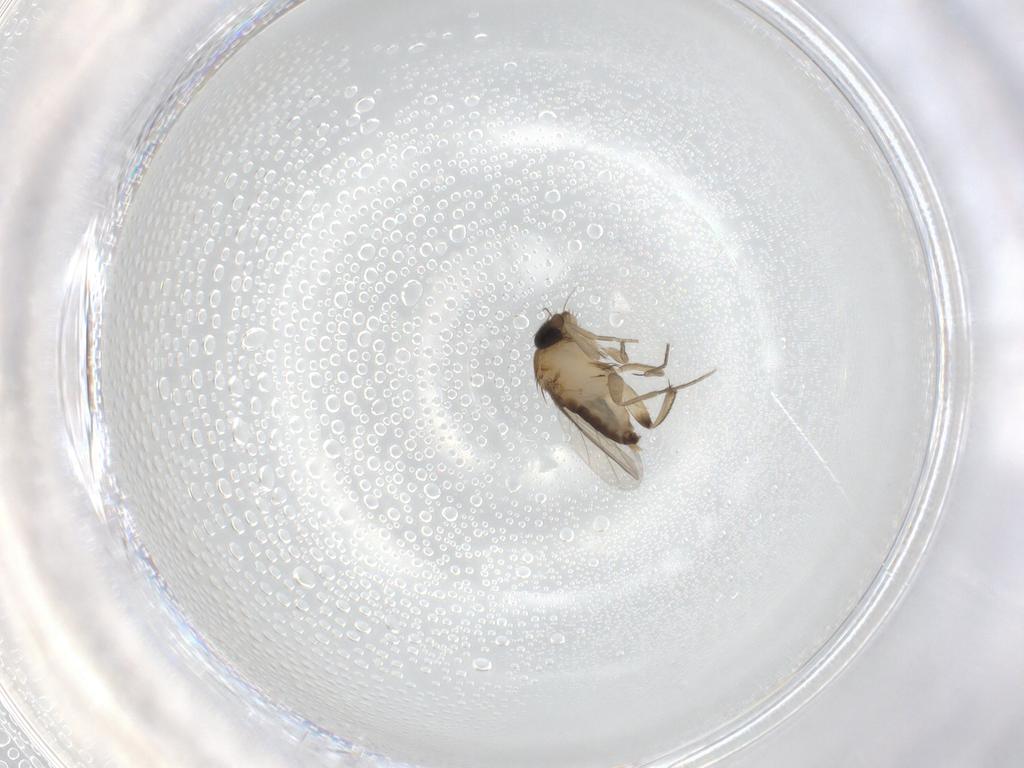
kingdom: Animalia
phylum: Arthropoda
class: Insecta
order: Diptera
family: Phoridae
